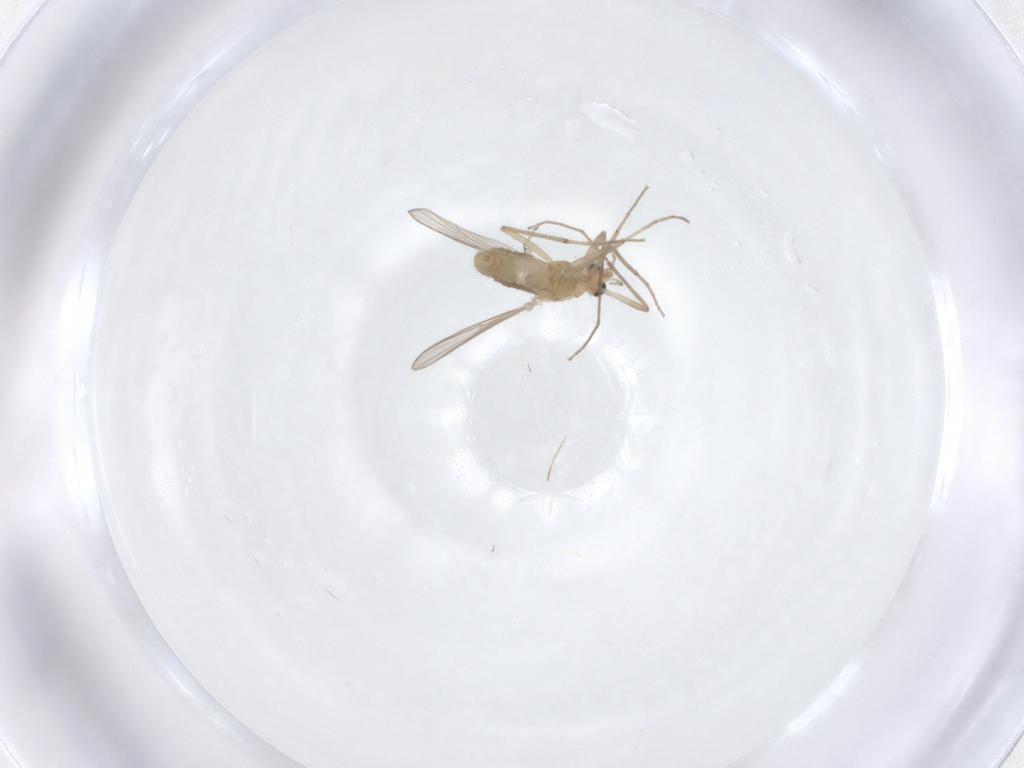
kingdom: Animalia
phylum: Arthropoda
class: Insecta
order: Diptera
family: Chironomidae
